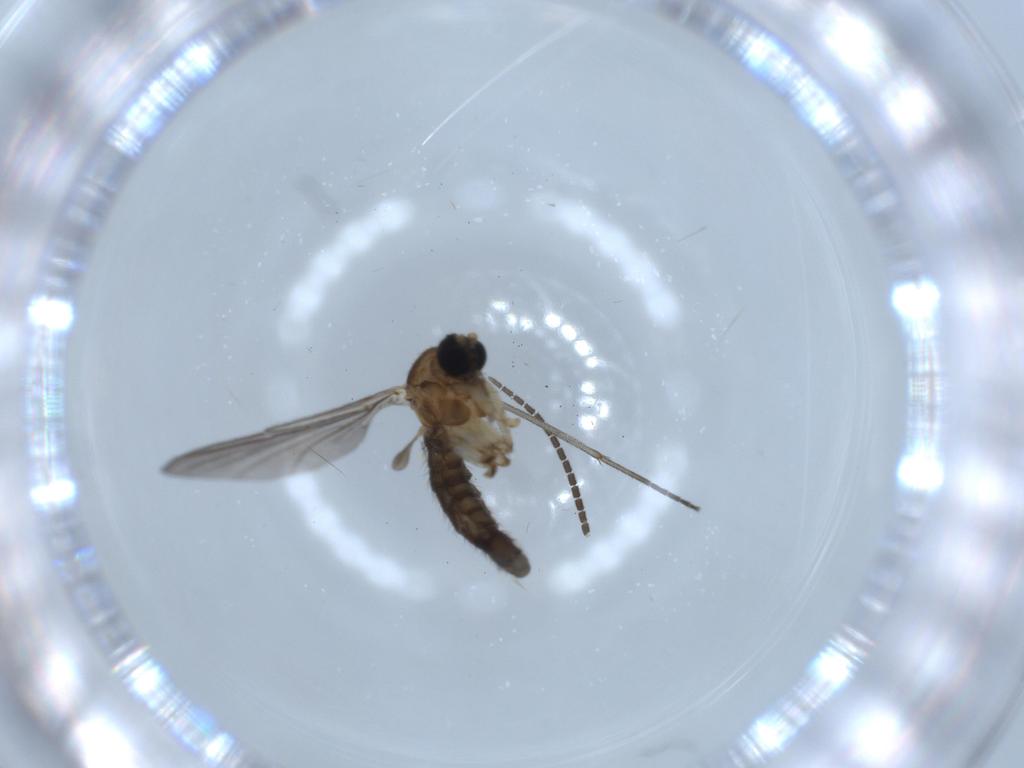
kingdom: Animalia
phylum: Arthropoda
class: Insecta
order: Diptera
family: Sciaridae
